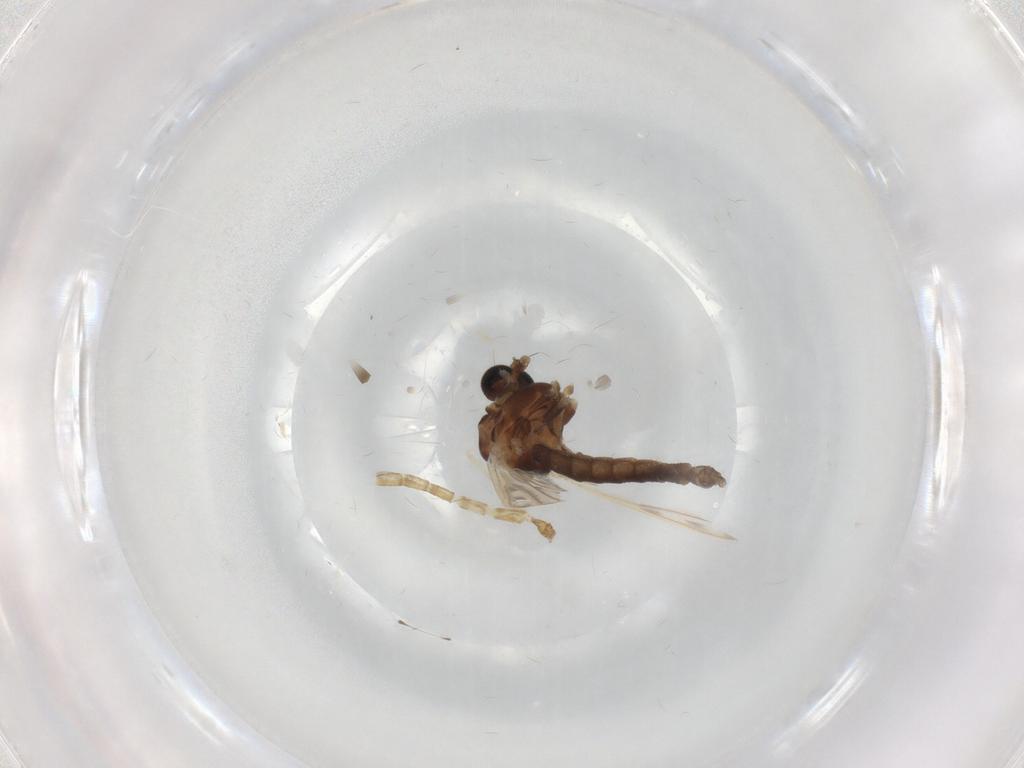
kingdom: Animalia
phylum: Arthropoda
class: Insecta
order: Diptera
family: Chironomidae
